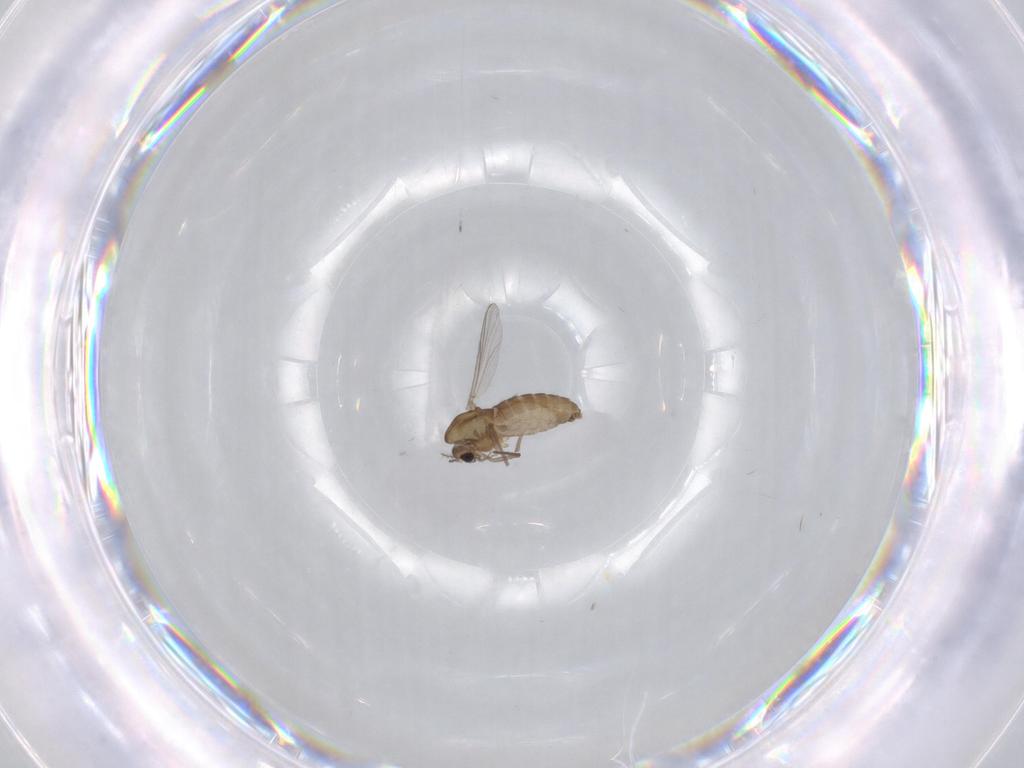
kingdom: Animalia
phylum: Arthropoda
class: Insecta
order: Diptera
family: Chironomidae
